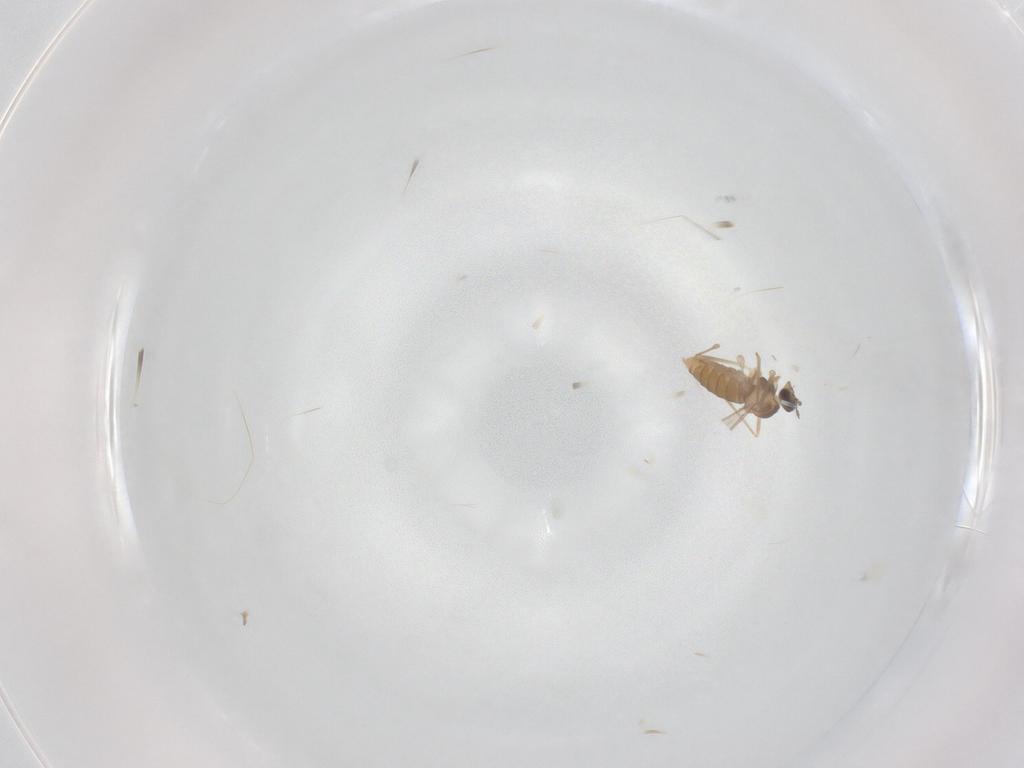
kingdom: Animalia
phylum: Arthropoda
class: Insecta
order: Diptera
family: Cecidomyiidae
